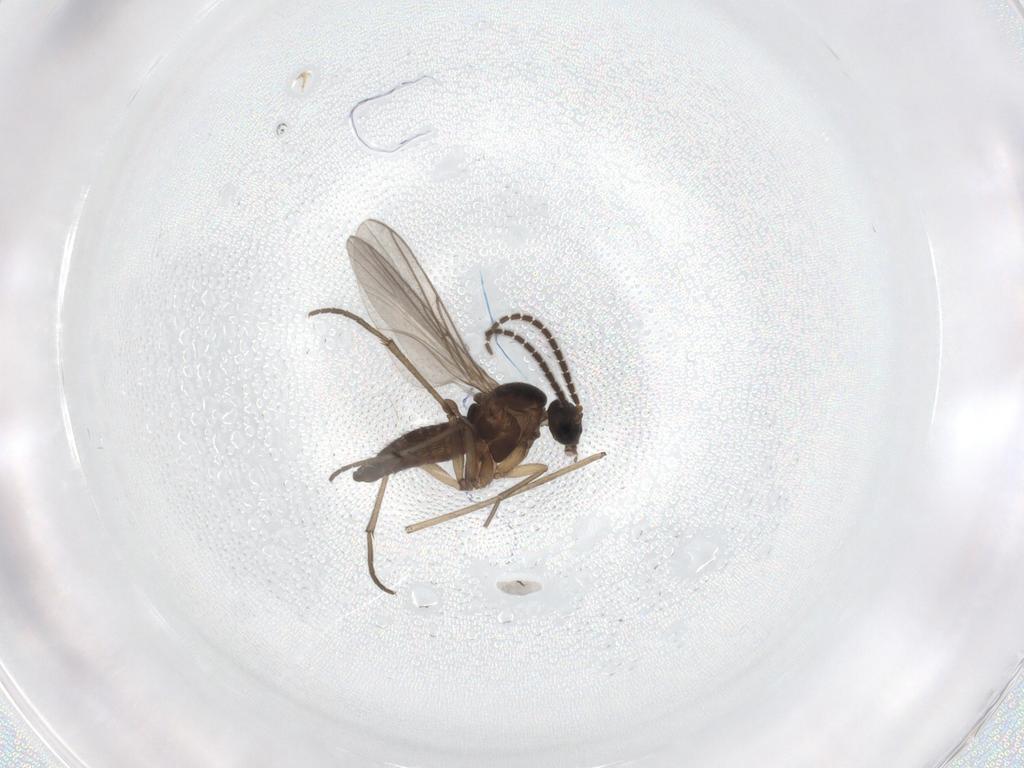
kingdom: Animalia
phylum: Arthropoda
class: Insecta
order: Diptera
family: Sciaridae
